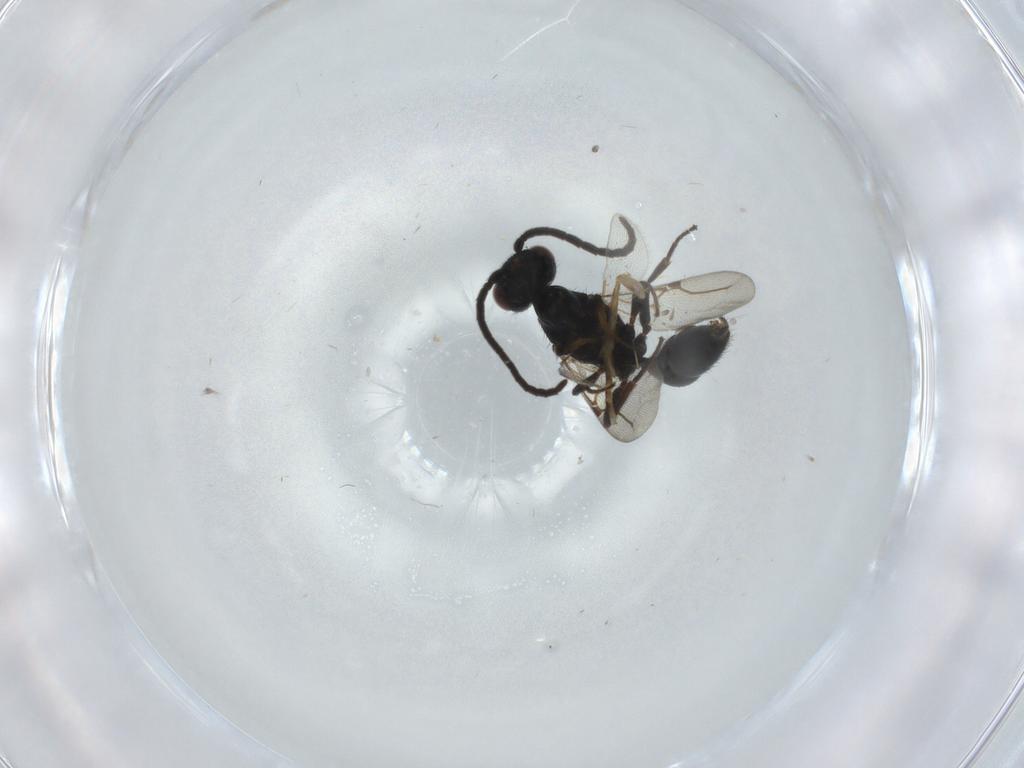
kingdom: Animalia
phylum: Arthropoda
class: Insecta
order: Hymenoptera
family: Bethylidae
